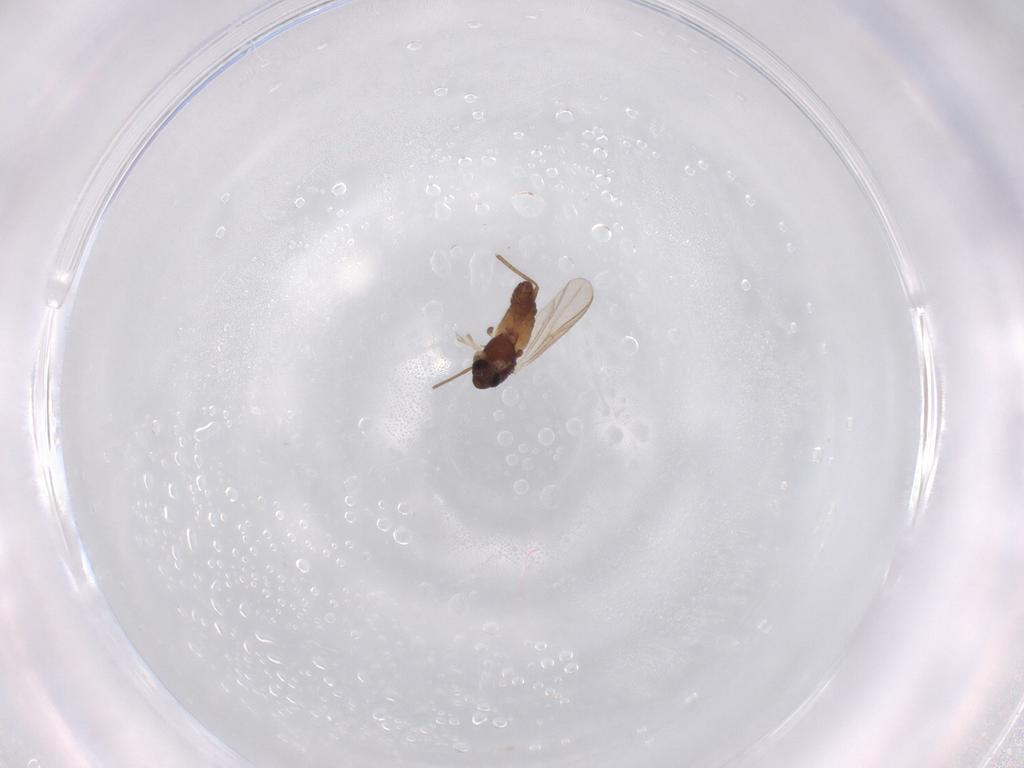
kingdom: Animalia
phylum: Arthropoda
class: Insecta
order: Diptera
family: Chironomidae
